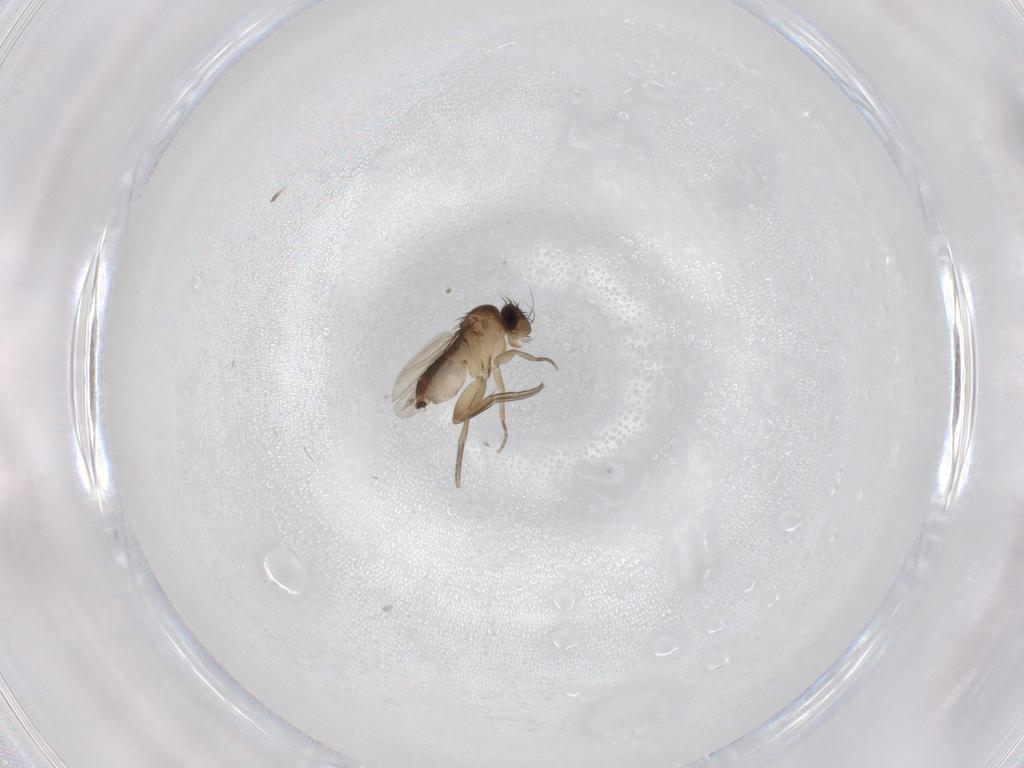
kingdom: Animalia
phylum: Arthropoda
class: Insecta
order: Diptera
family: Phoridae
